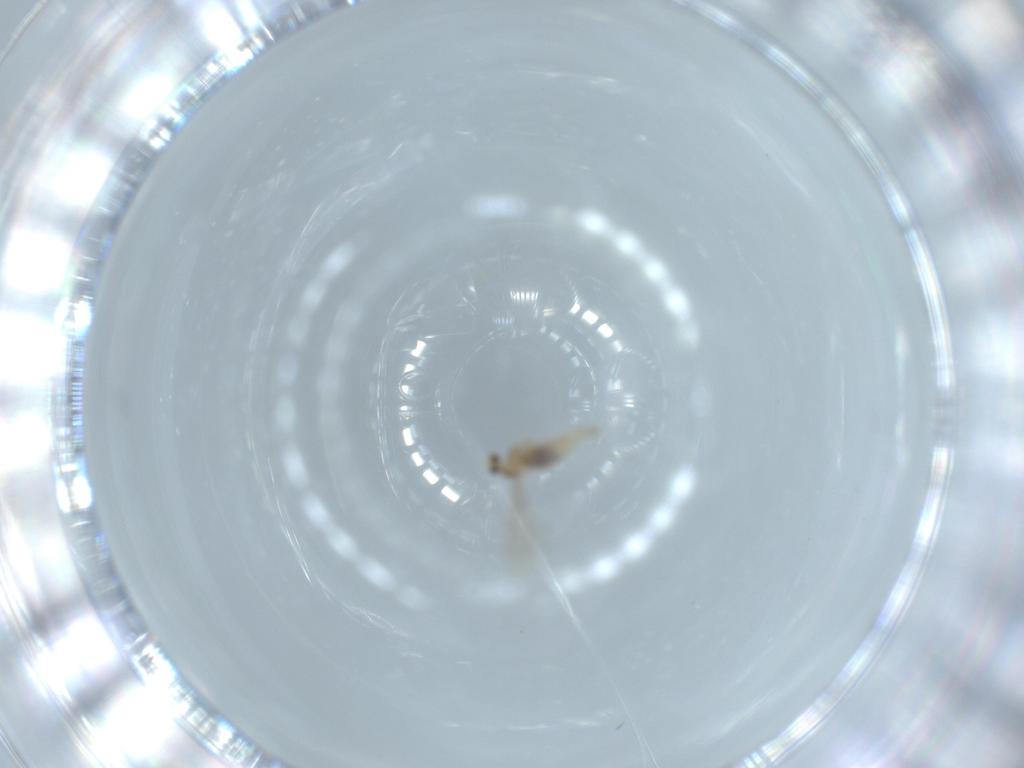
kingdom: Animalia
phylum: Arthropoda
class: Insecta
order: Diptera
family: Cecidomyiidae
